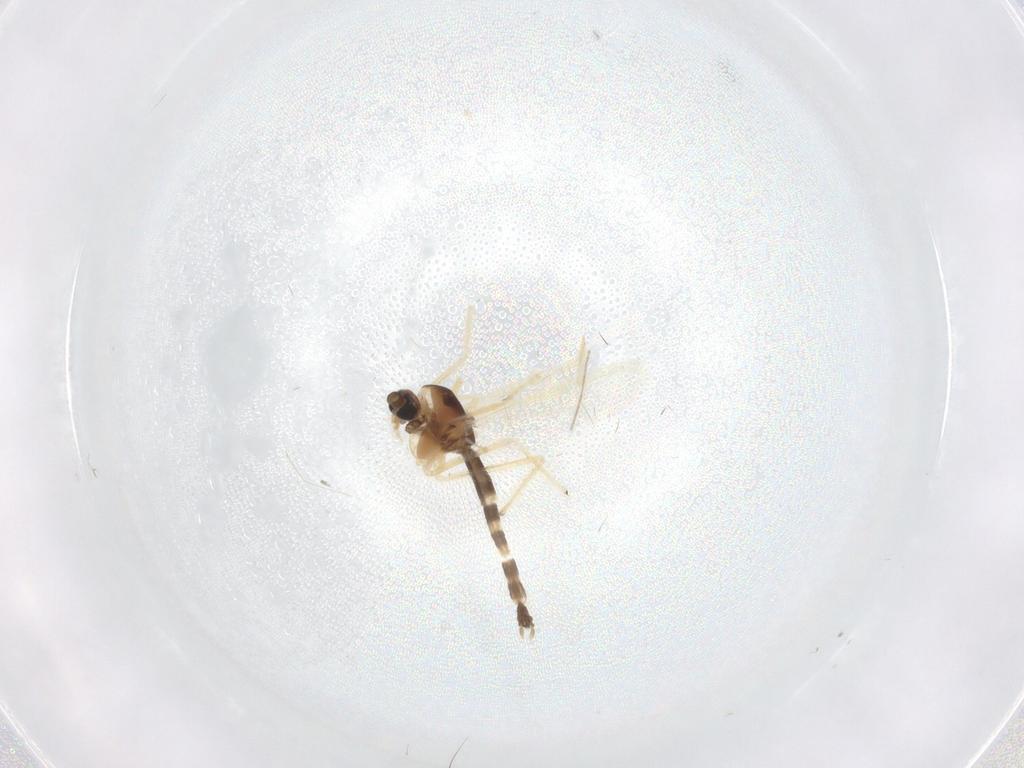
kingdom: Animalia
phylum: Arthropoda
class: Insecta
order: Diptera
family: Chironomidae
